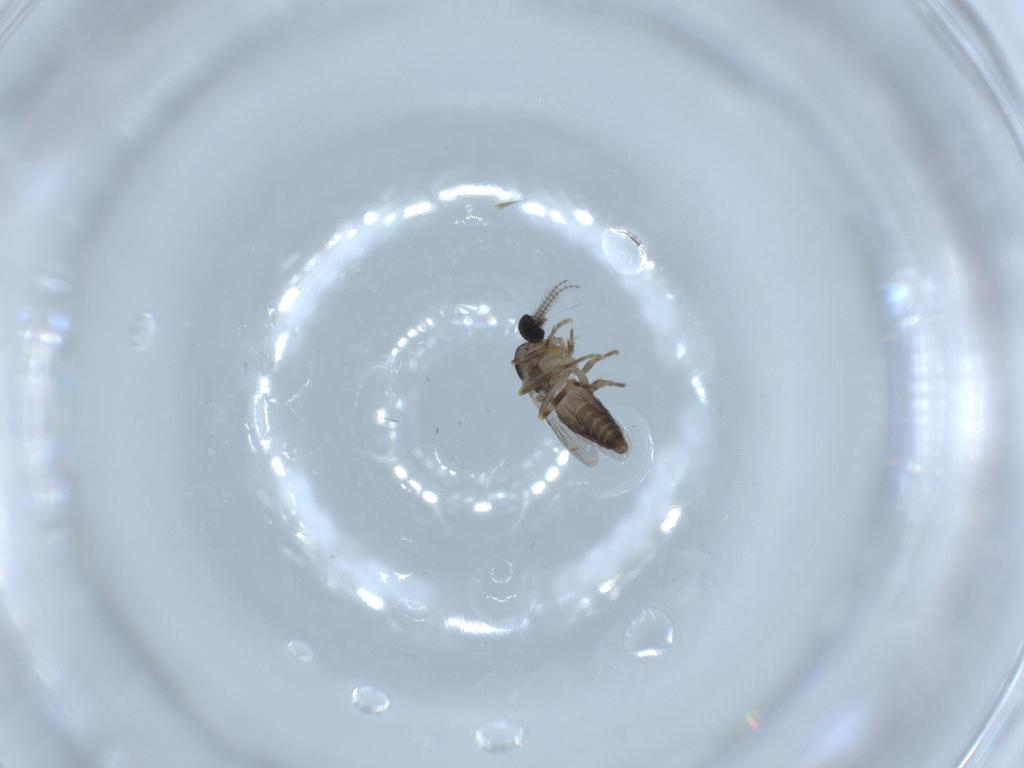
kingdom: Animalia
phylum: Arthropoda
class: Insecta
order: Diptera
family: Ceratopogonidae
